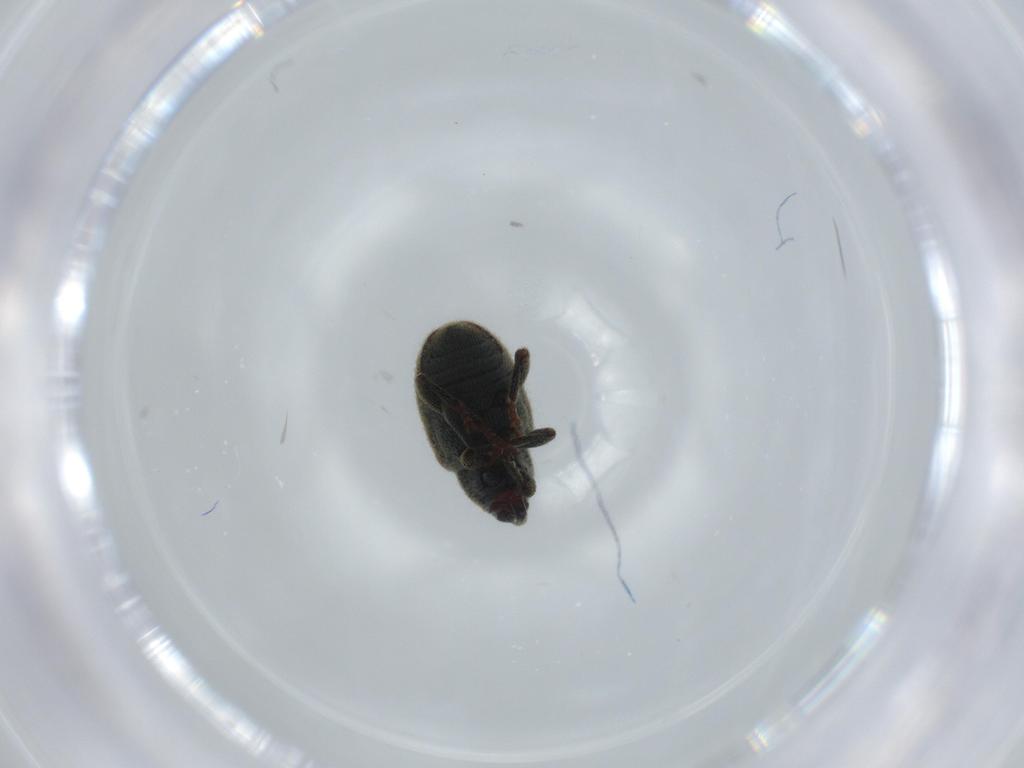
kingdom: Animalia
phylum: Arthropoda
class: Insecta
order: Coleoptera
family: Curculionidae
